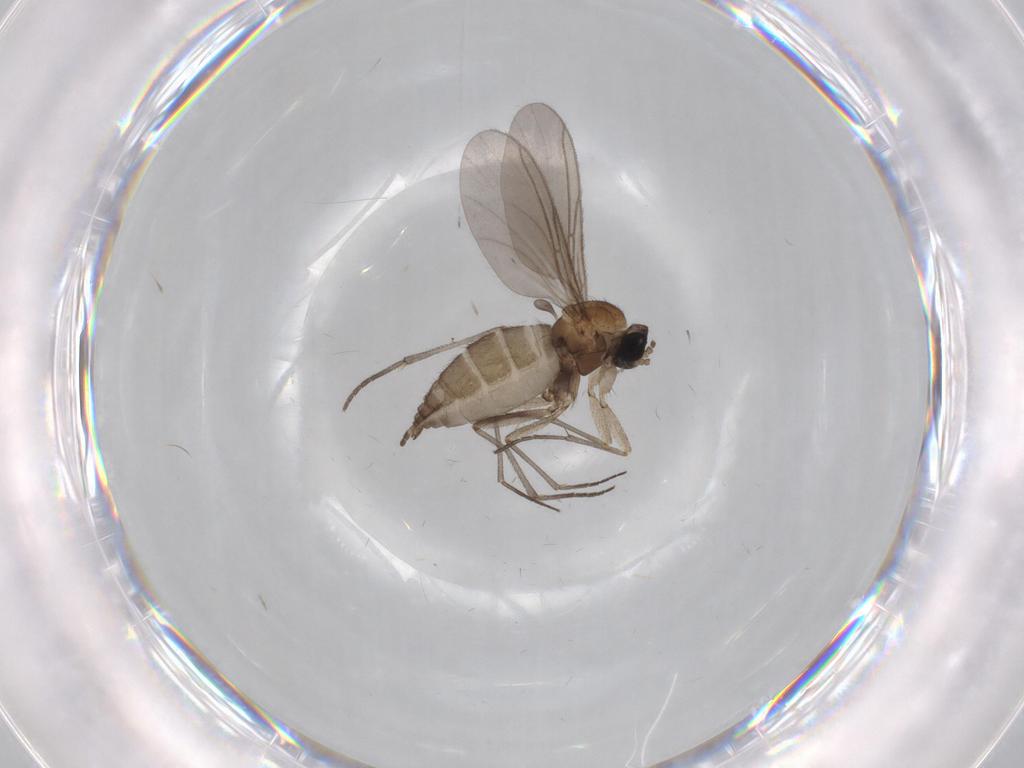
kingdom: Animalia
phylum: Arthropoda
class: Insecta
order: Diptera
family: Sciaridae
